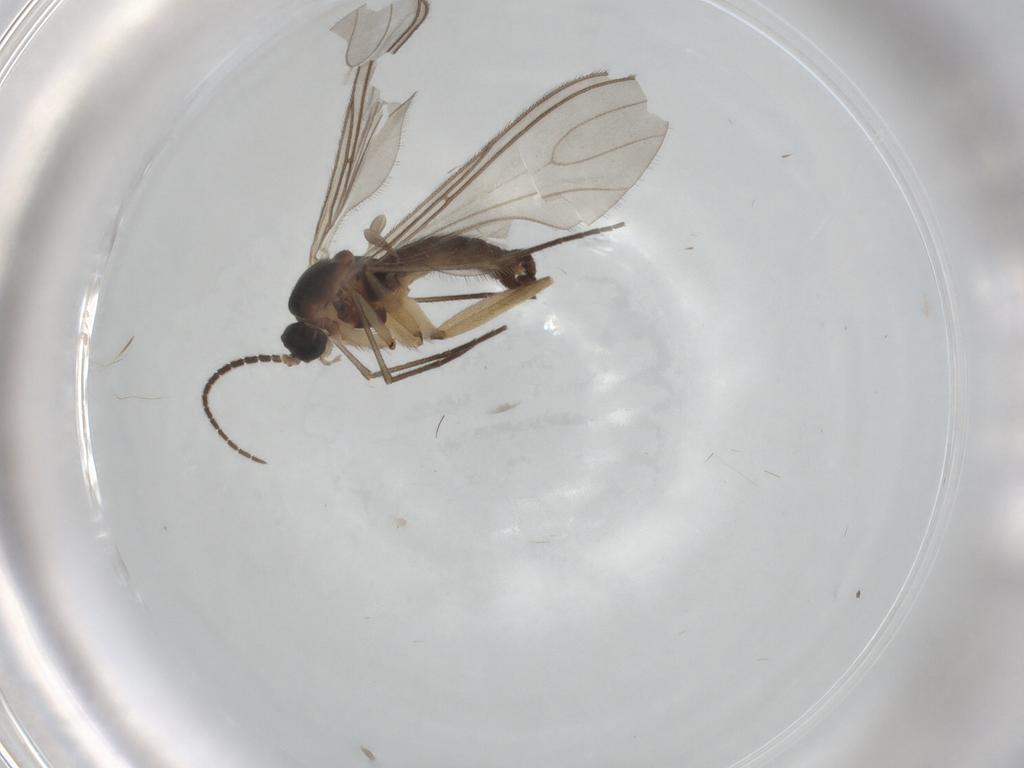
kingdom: Animalia
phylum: Arthropoda
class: Insecta
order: Diptera
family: Sciaridae
